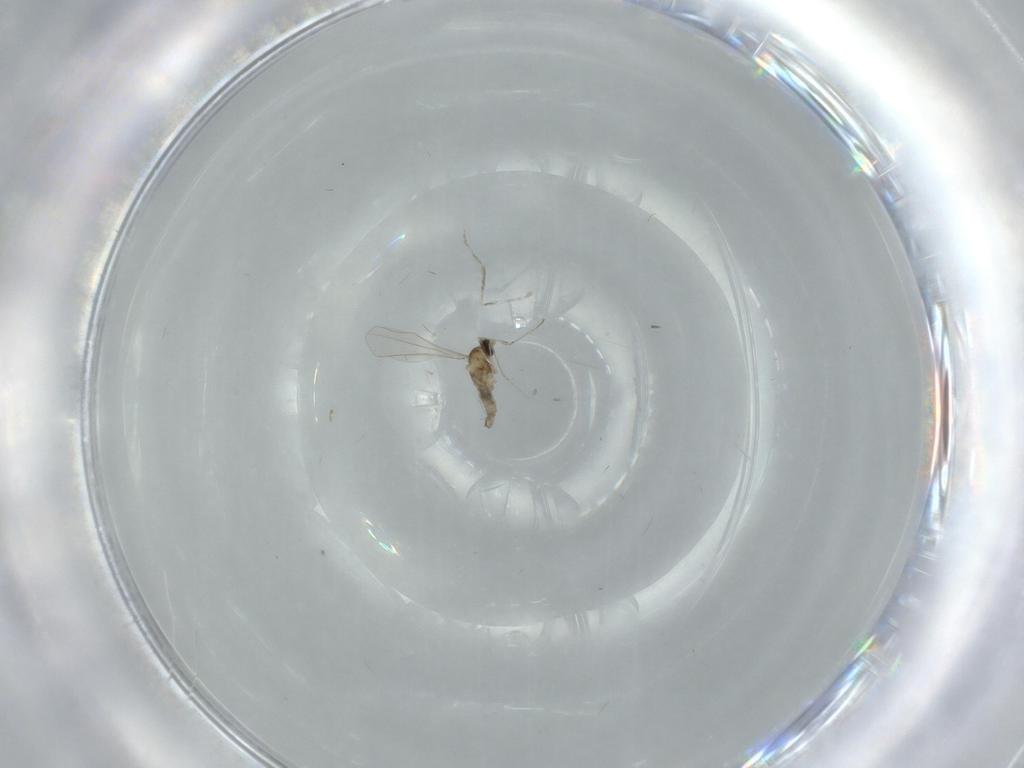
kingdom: Animalia
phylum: Arthropoda
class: Insecta
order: Diptera
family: Cecidomyiidae
